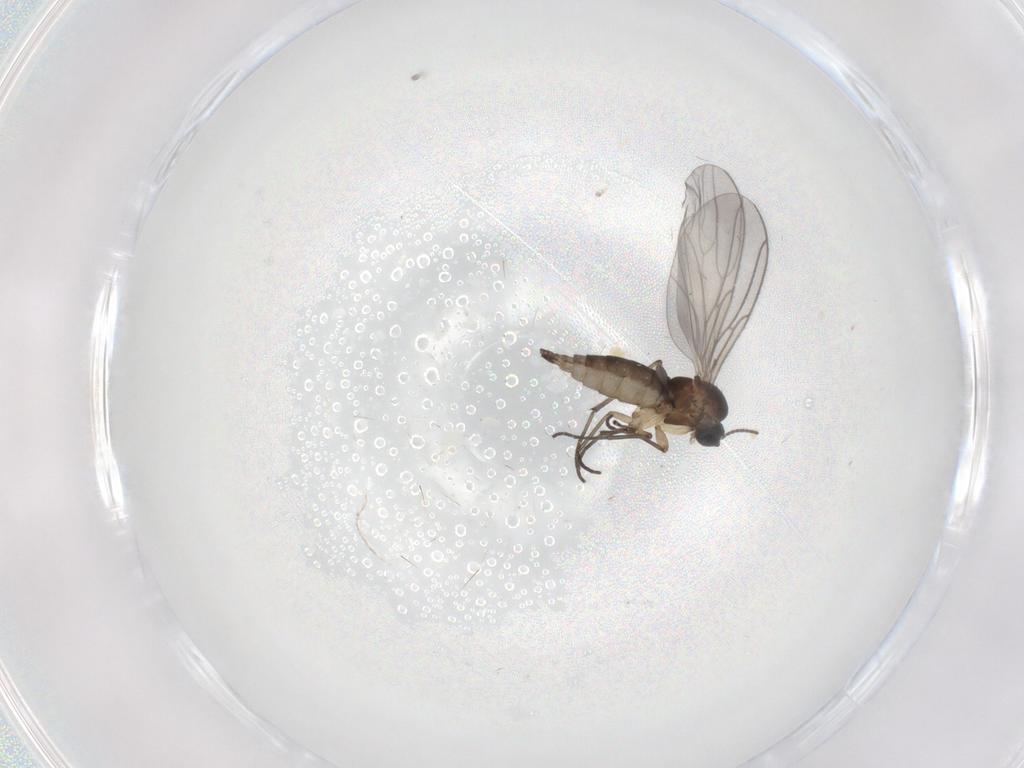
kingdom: Animalia
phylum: Arthropoda
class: Insecta
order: Diptera
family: Sciaridae
